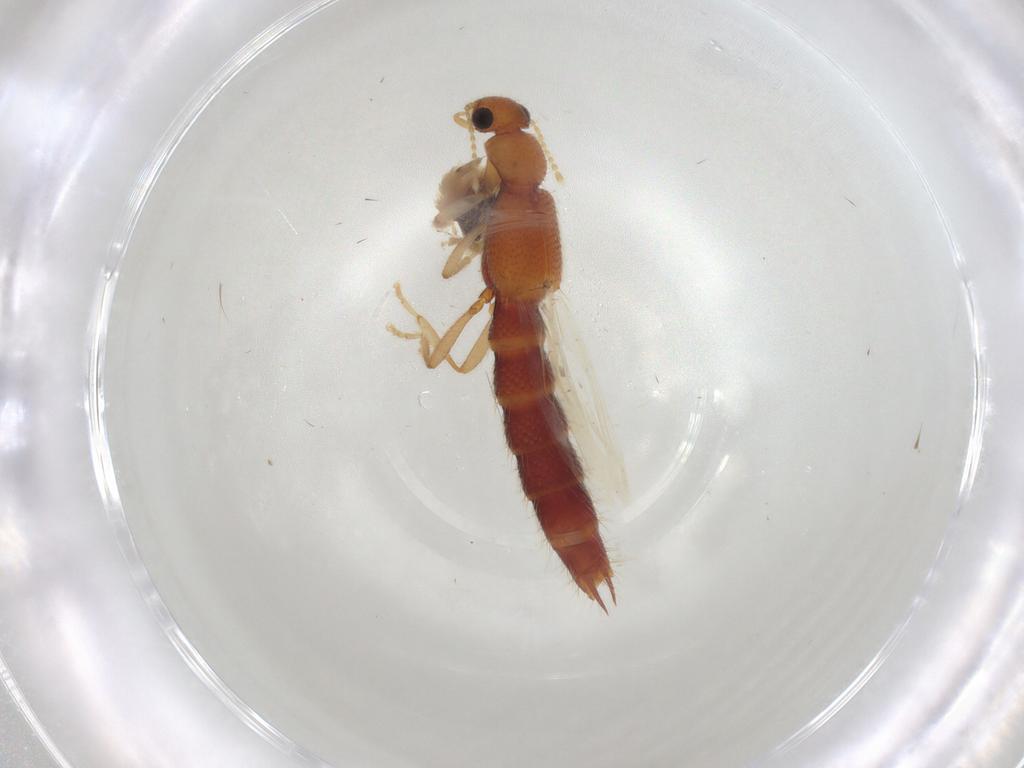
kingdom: Animalia
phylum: Arthropoda
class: Insecta
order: Coleoptera
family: Staphylinidae
